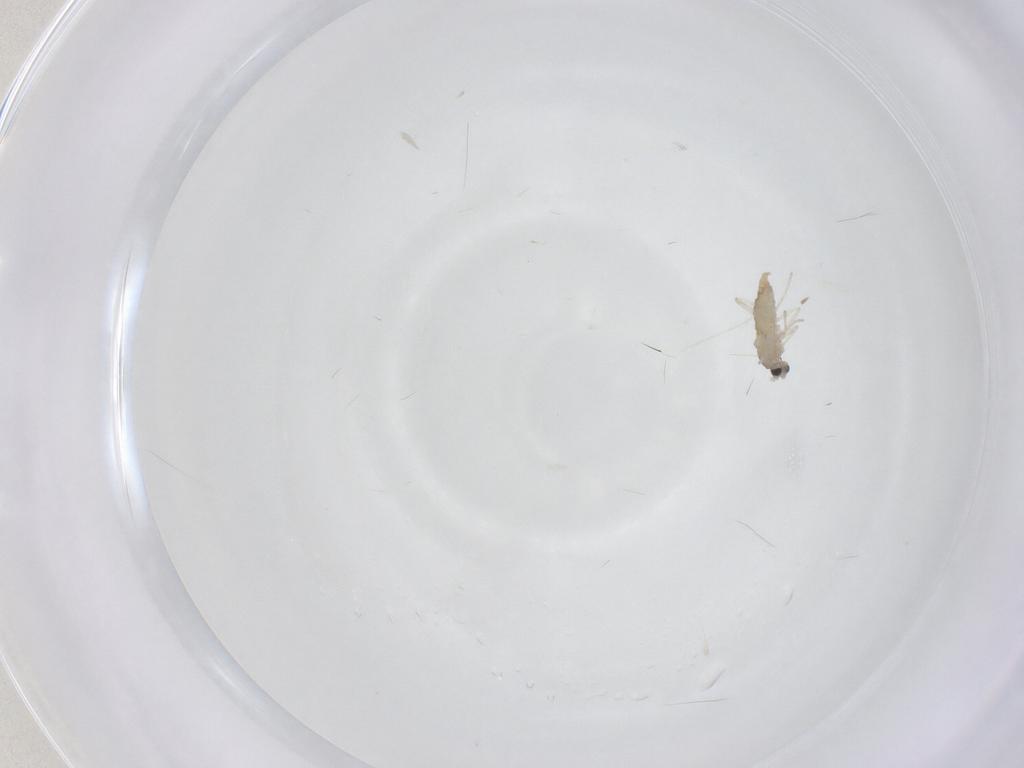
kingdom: Animalia
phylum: Arthropoda
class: Insecta
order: Diptera
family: Cecidomyiidae
